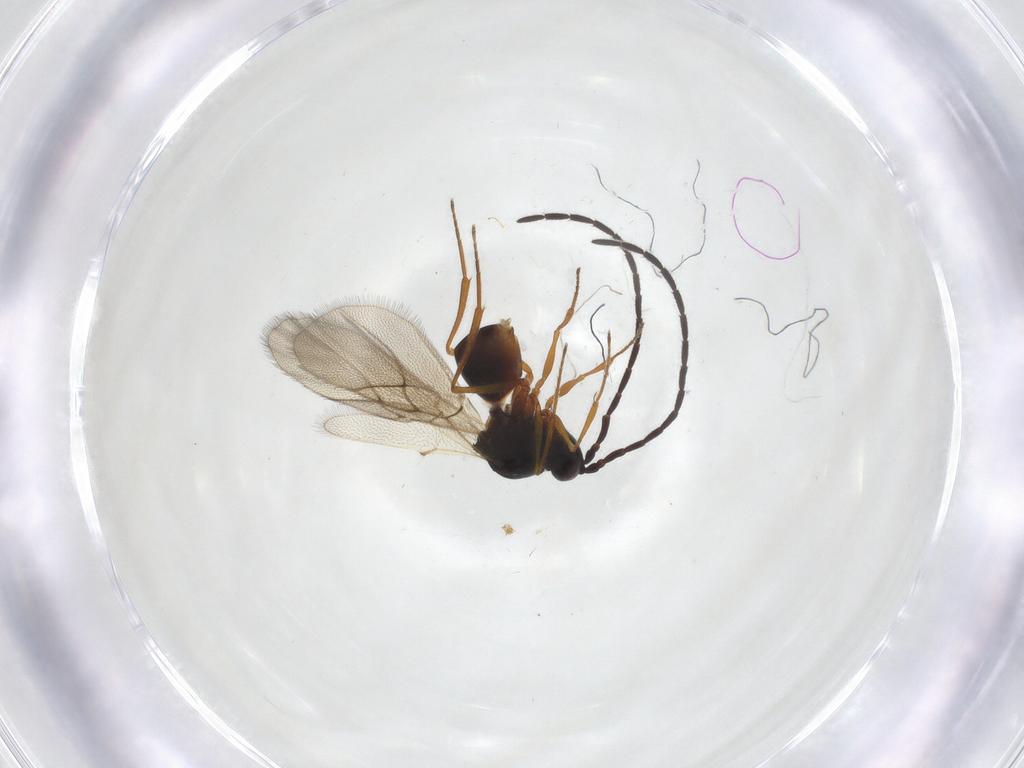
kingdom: Animalia
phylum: Arthropoda
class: Insecta
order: Hymenoptera
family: Figitidae
